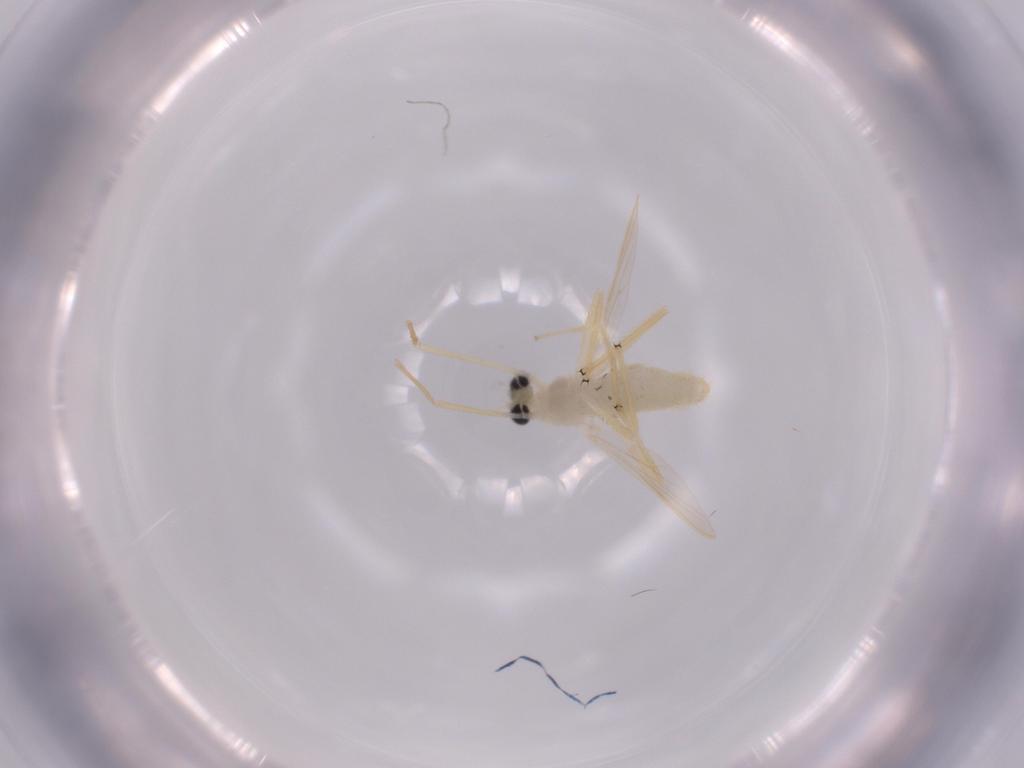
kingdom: Animalia
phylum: Arthropoda
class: Insecta
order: Diptera
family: Cecidomyiidae
